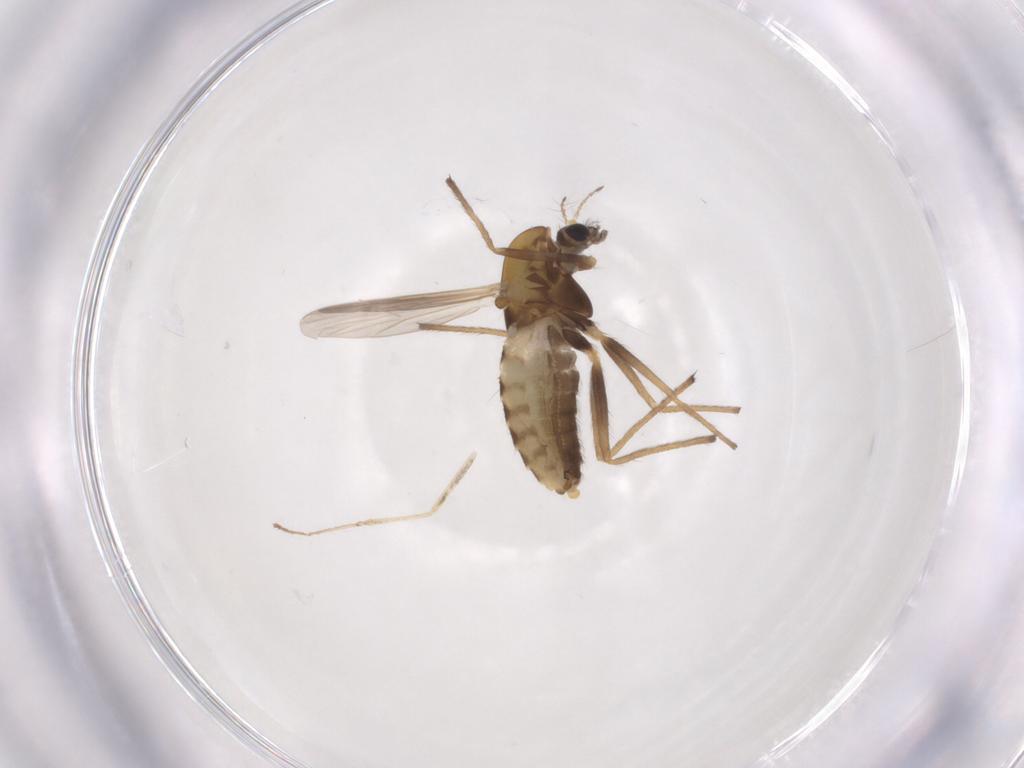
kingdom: Animalia
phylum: Arthropoda
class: Insecta
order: Diptera
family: Chironomidae
